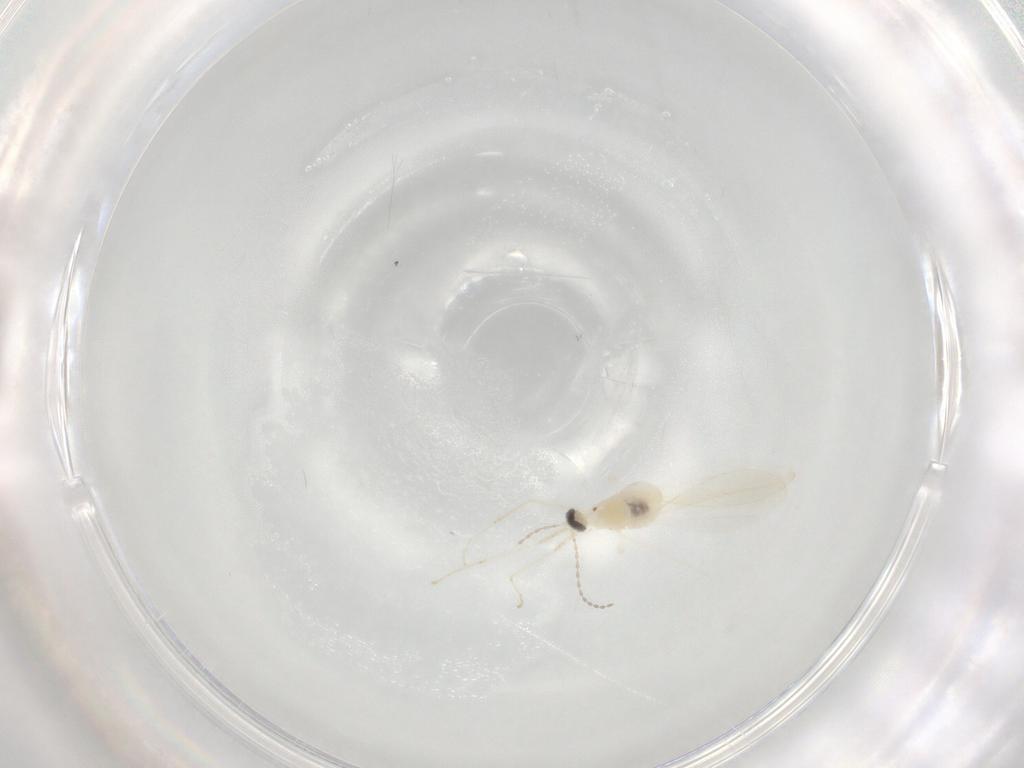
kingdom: Animalia
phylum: Arthropoda
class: Insecta
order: Diptera
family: Cecidomyiidae
